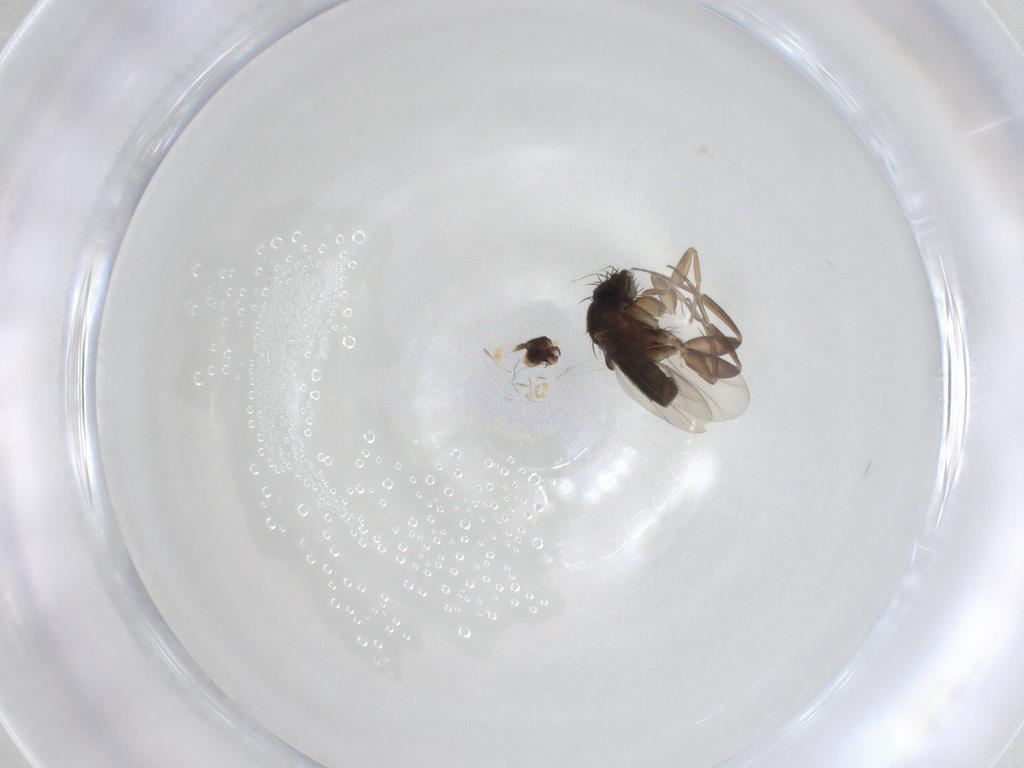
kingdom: Animalia
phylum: Arthropoda
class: Insecta
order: Diptera
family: Phoridae
